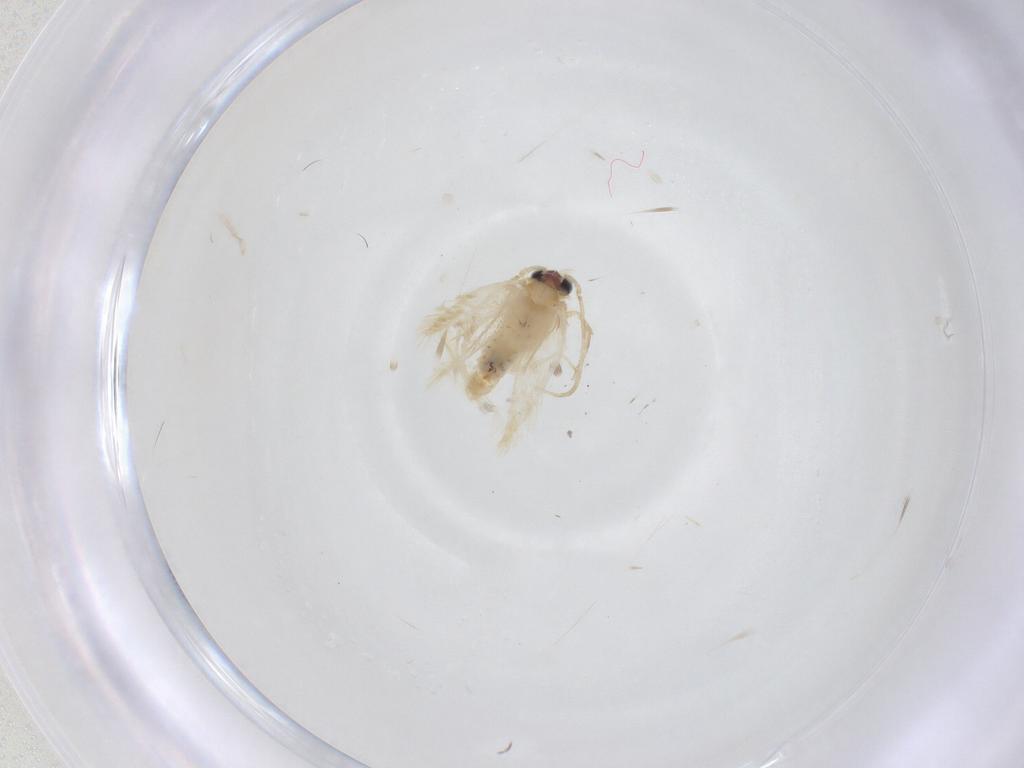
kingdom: Animalia
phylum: Arthropoda
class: Insecta
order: Lepidoptera
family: Nepticulidae
